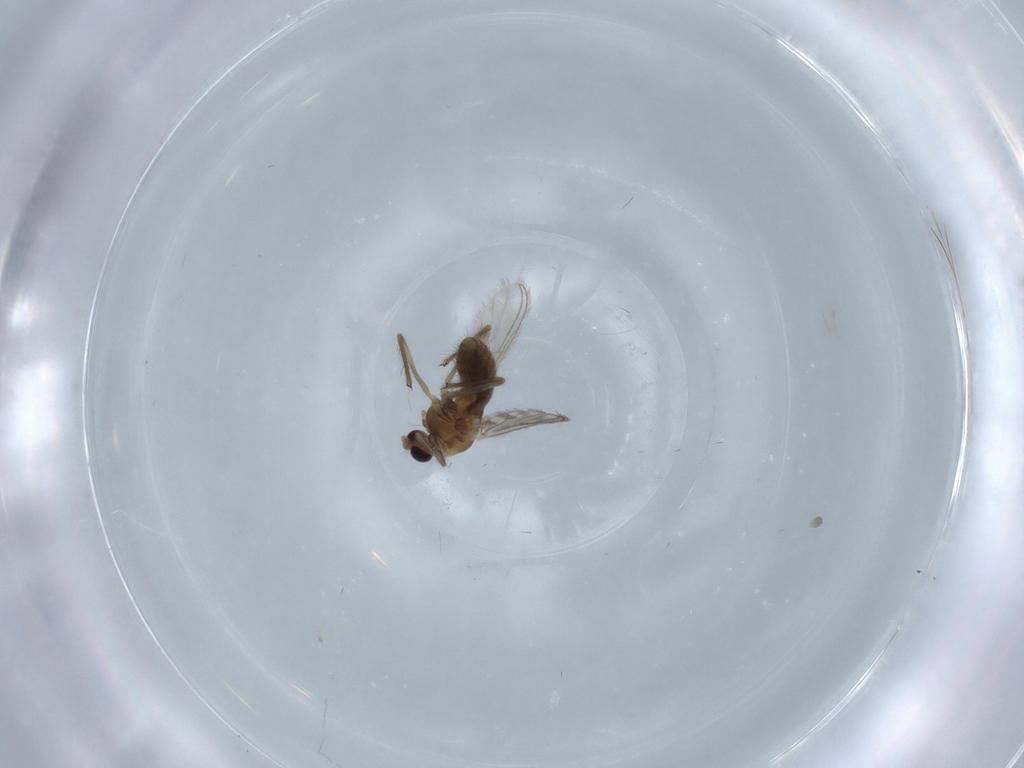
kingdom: Animalia
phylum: Arthropoda
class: Insecta
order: Diptera
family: Chironomidae
